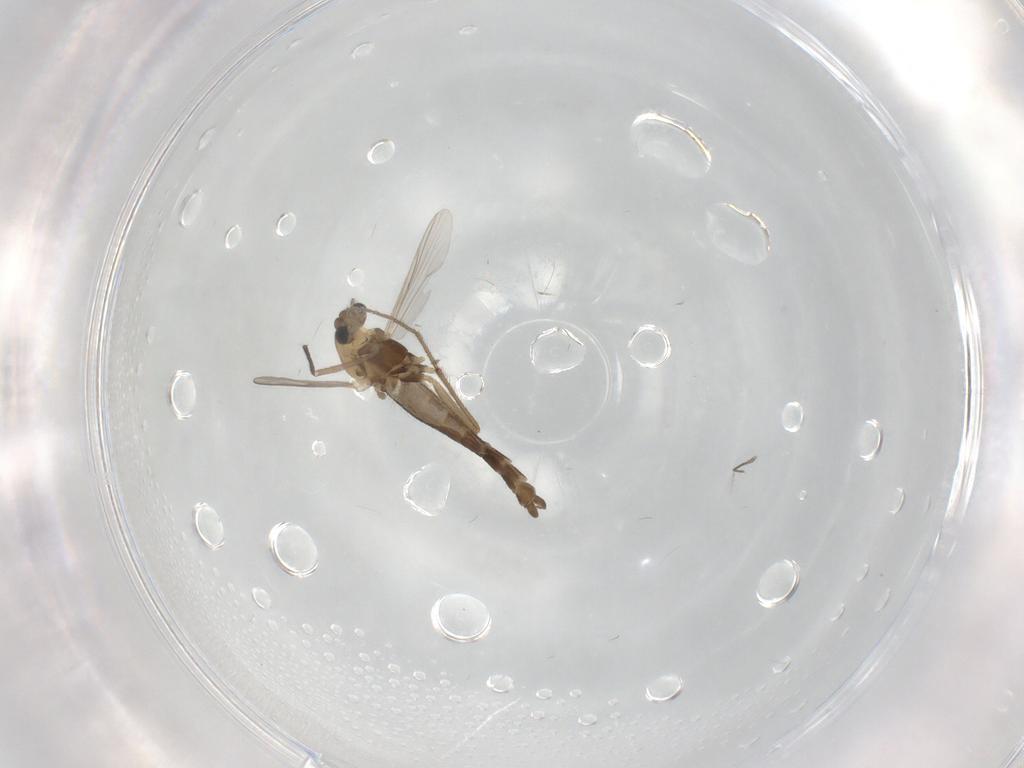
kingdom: Animalia
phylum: Arthropoda
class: Insecta
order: Diptera
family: Chironomidae
